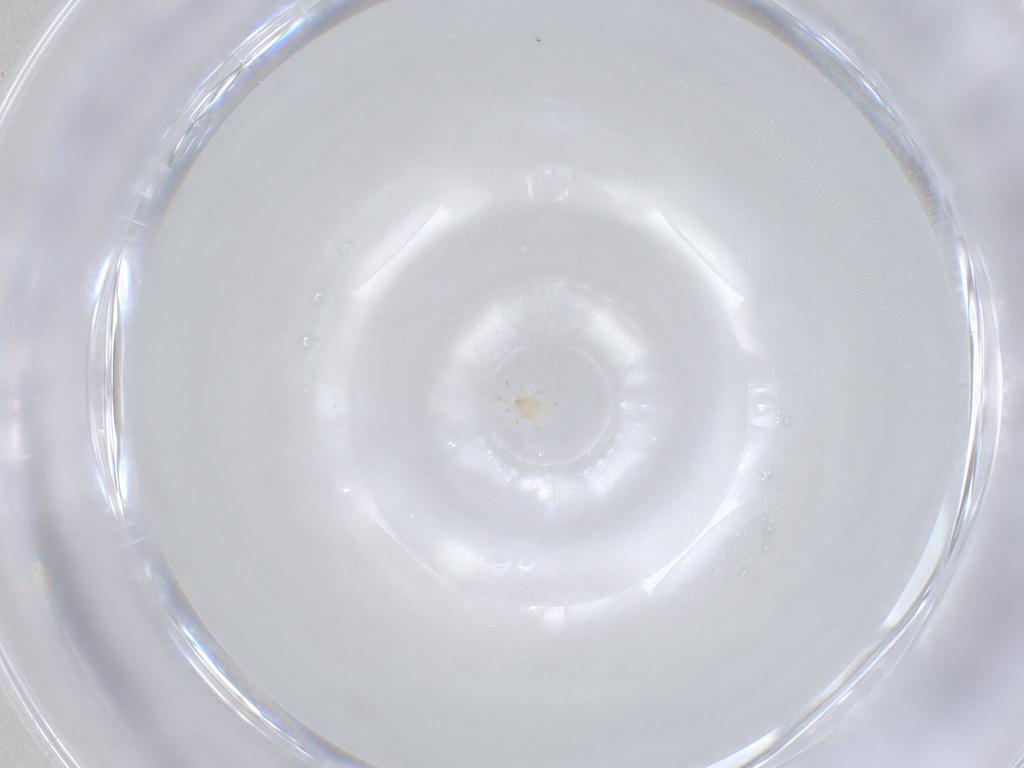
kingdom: Animalia
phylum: Arthropoda
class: Arachnida
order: Mesostigmata
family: Phytoseiidae
